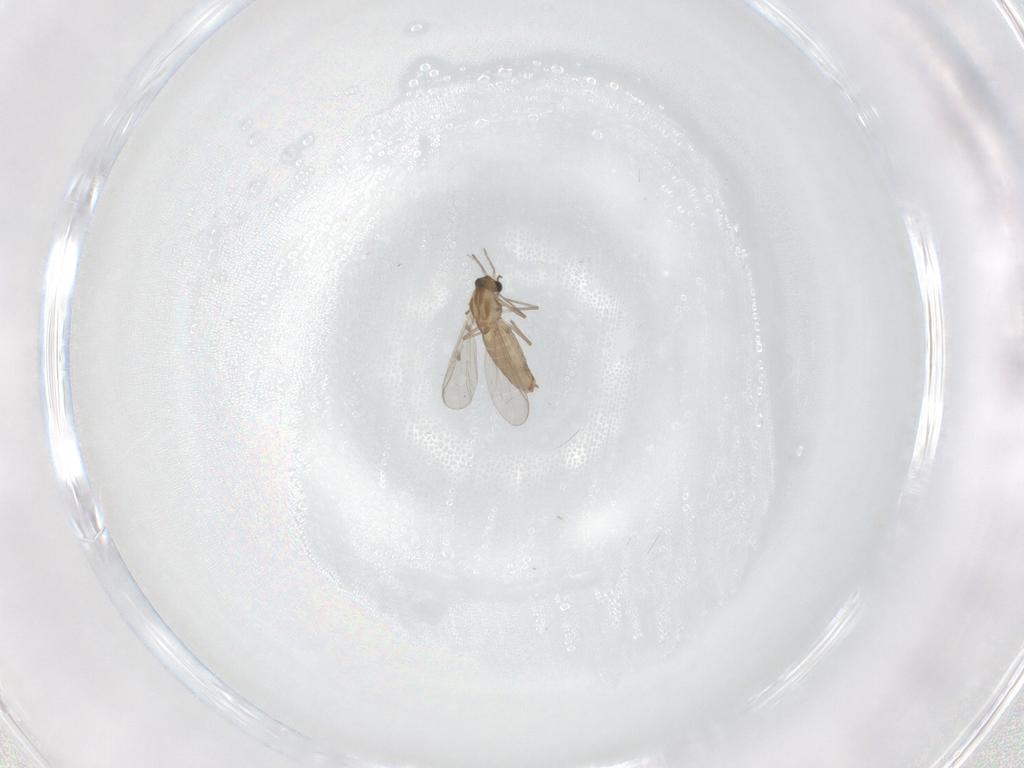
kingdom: Animalia
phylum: Arthropoda
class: Insecta
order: Diptera
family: Chironomidae
